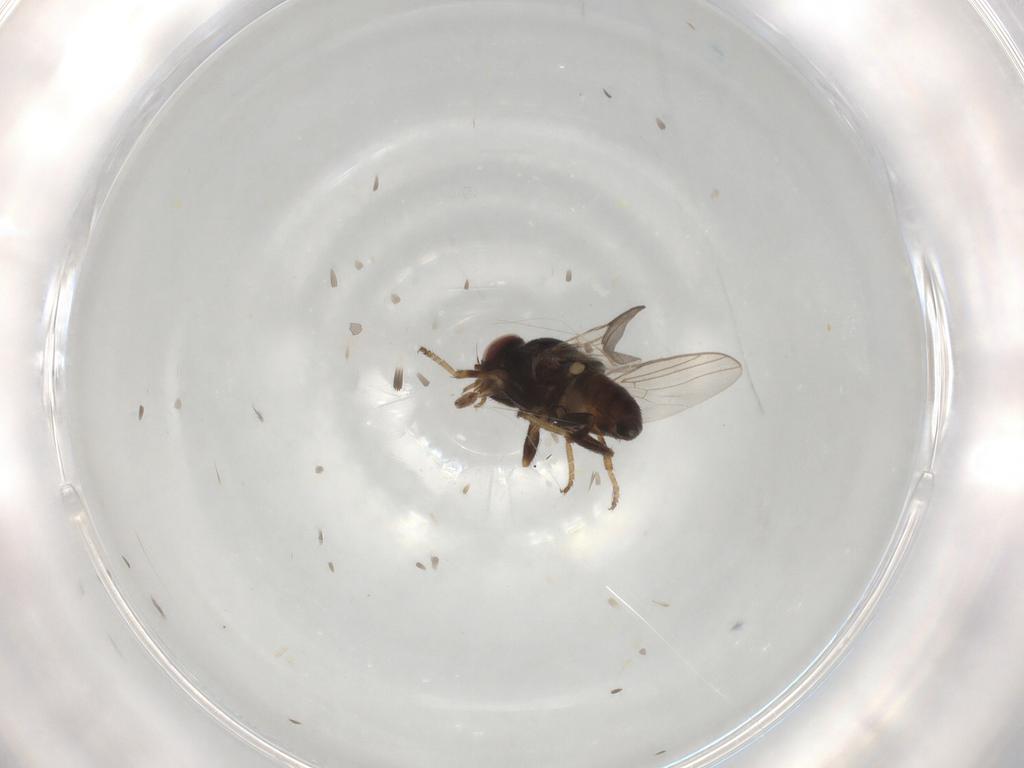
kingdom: Animalia
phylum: Arthropoda
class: Insecta
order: Diptera
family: Chloropidae
